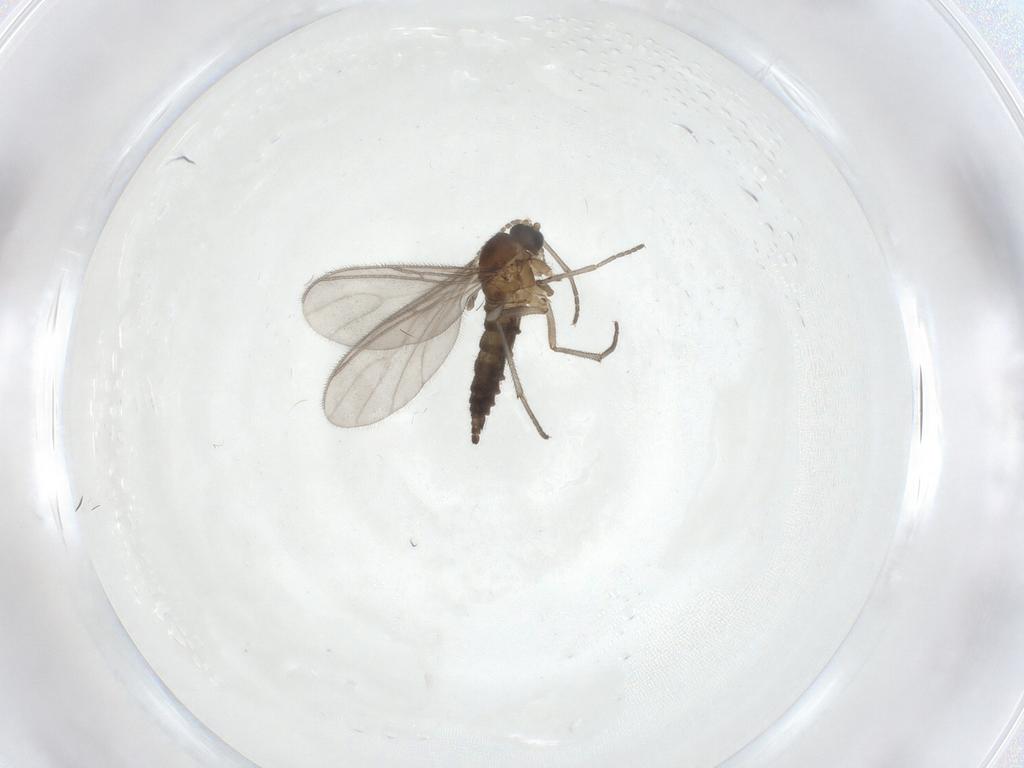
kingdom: Animalia
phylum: Arthropoda
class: Insecta
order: Diptera
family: Sciaridae
